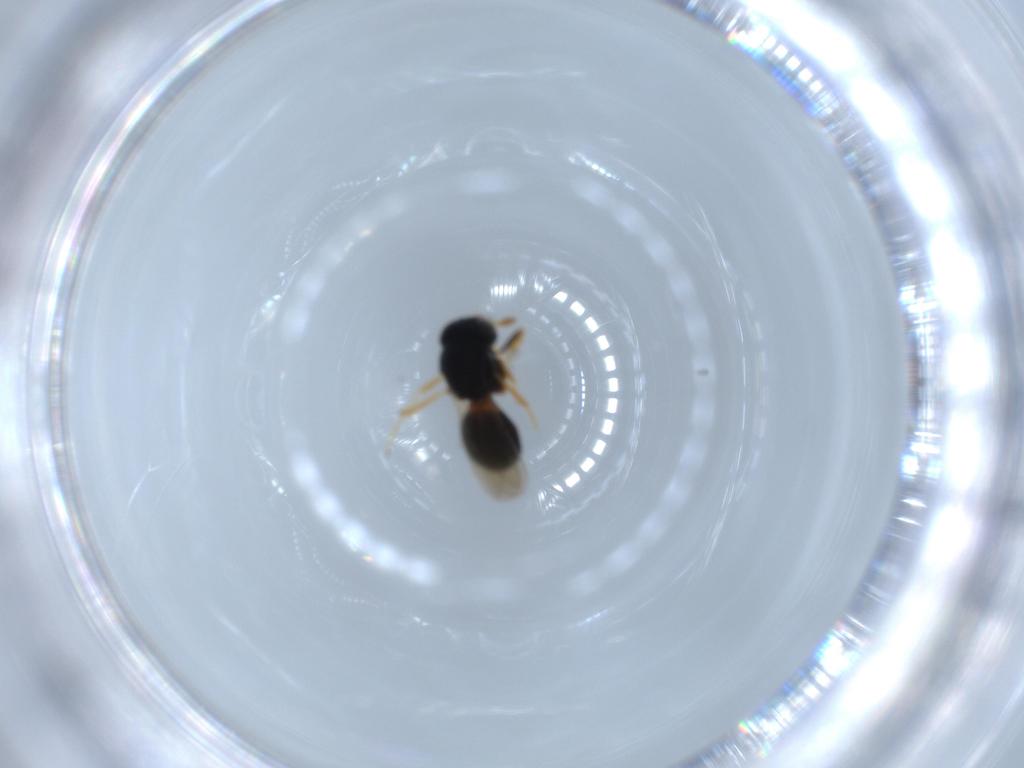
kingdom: Animalia
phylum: Arthropoda
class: Insecta
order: Hymenoptera
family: Scelionidae
